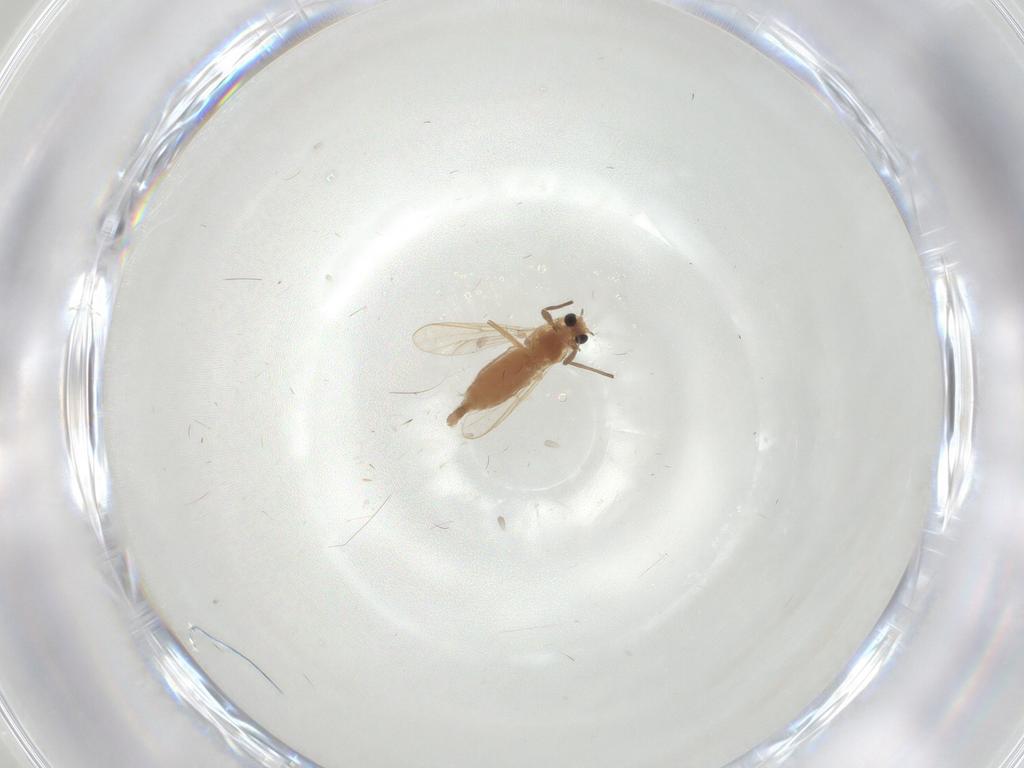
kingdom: Animalia
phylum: Arthropoda
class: Insecta
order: Diptera
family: Chironomidae
